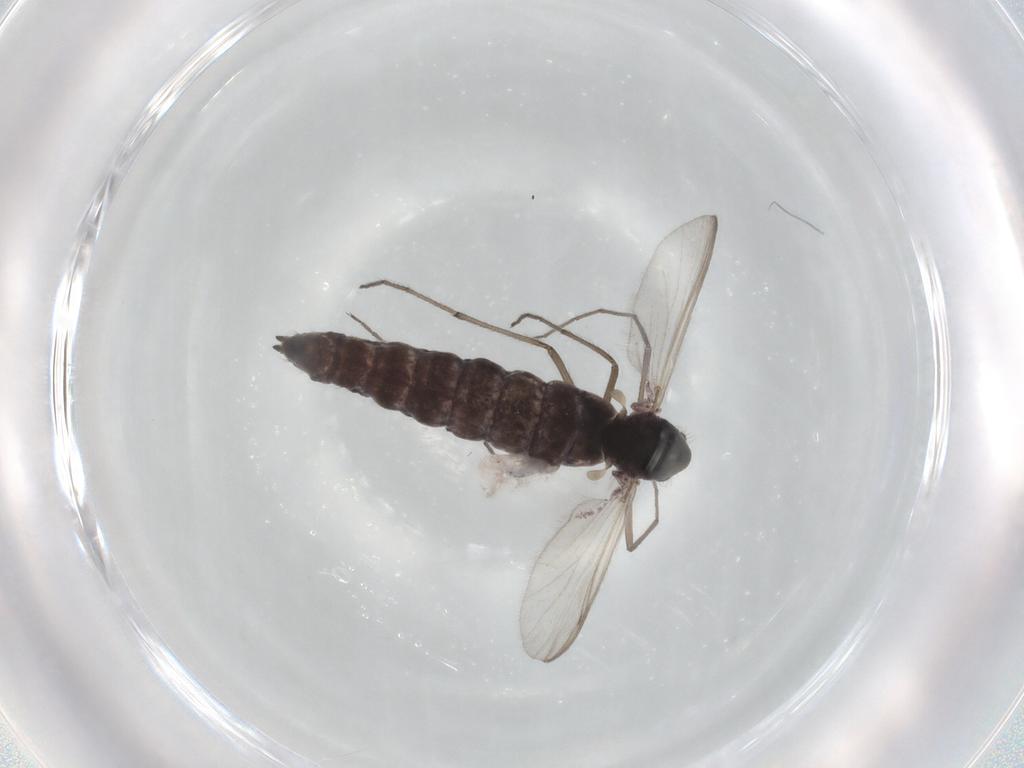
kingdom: Animalia
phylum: Arthropoda
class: Insecta
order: Diptera
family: Chironomidae
